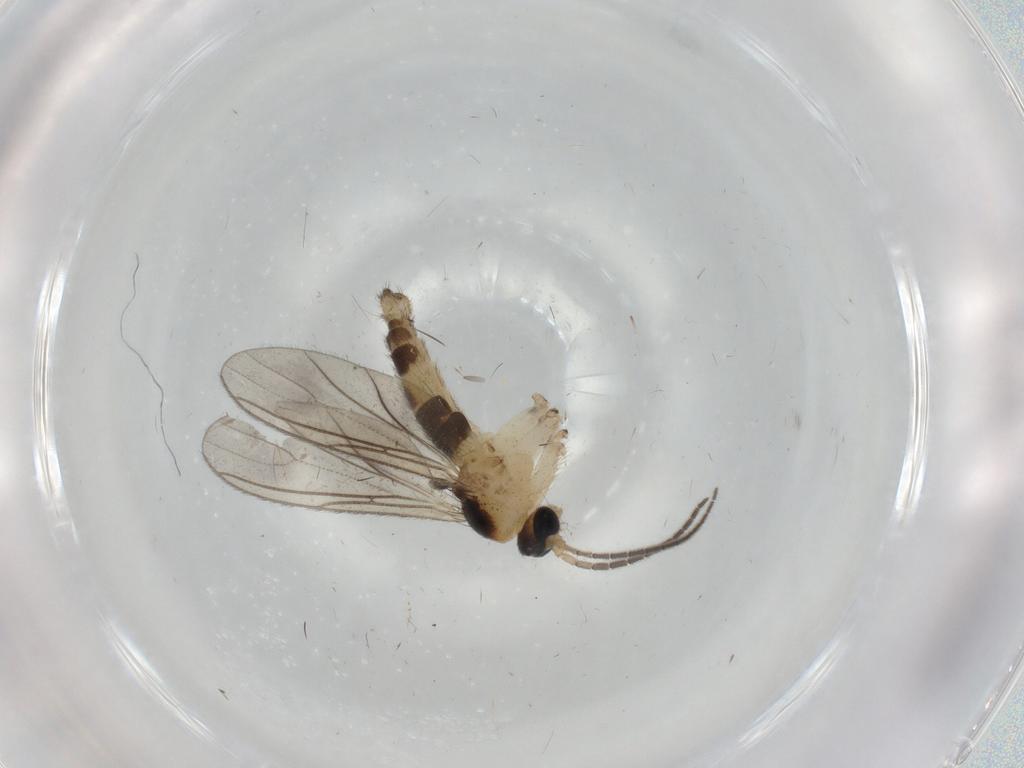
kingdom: Animalia
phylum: Arthropoda
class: Insecta
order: Diptera
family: Sciaridae
